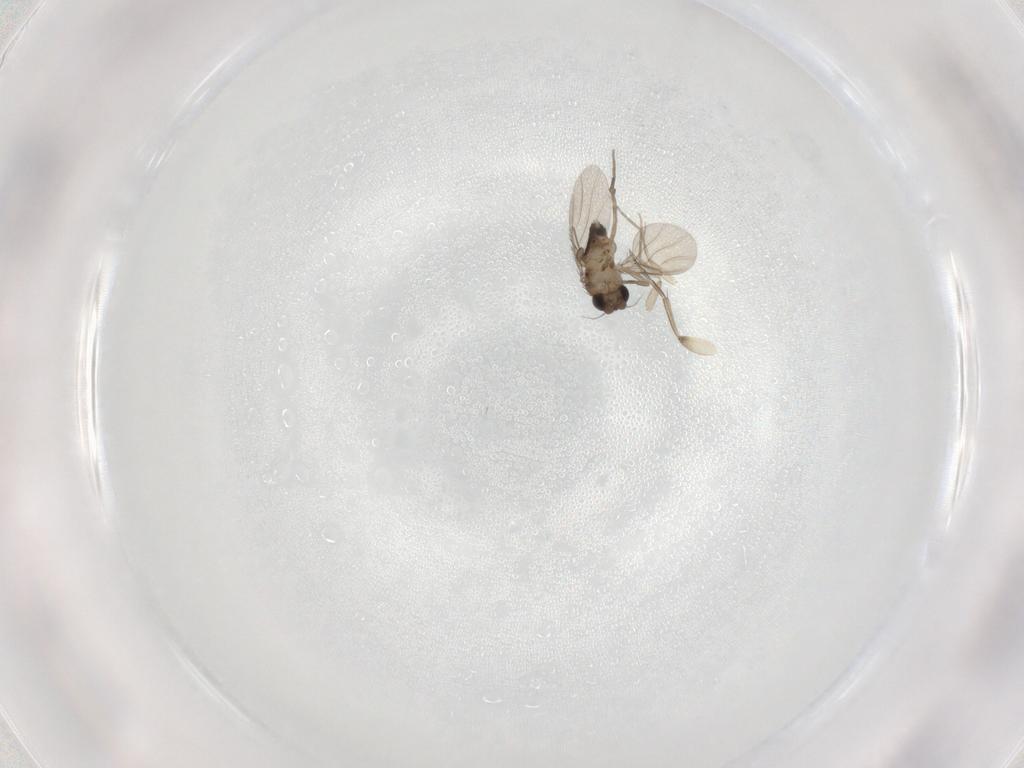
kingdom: Animalia
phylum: Arthropoda
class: Insecta
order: Diptera
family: Phoridae
